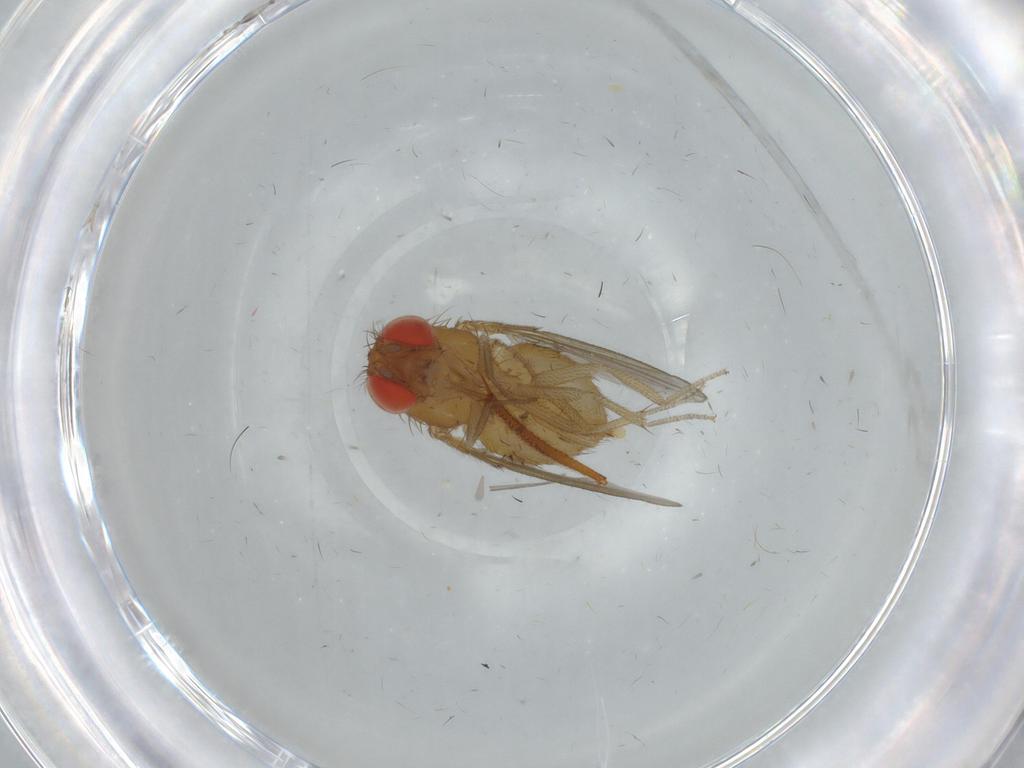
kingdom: Animalia
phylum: Arthropoda
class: Insecta
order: Diptera
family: Drosophilidae
